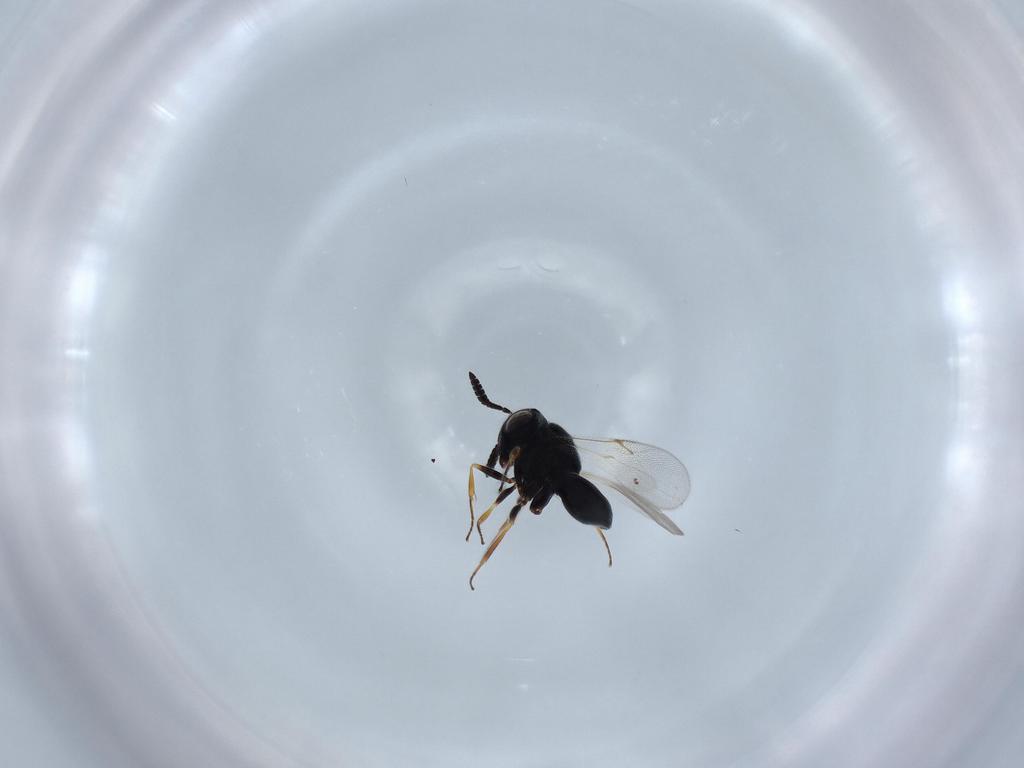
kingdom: Animalia
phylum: Arthropoda
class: Insecta
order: Hymenoptera
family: Scelionidae
